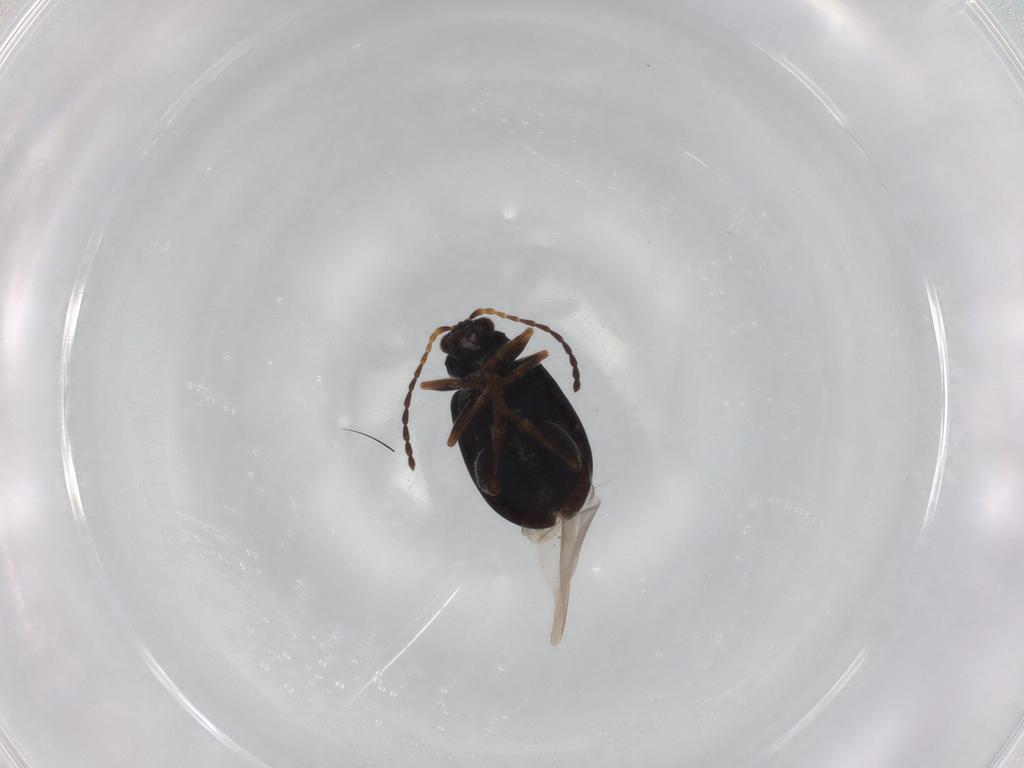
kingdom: Animalia
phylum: Arthropoda
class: Insecta
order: Coleoptera
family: Chrysomelidae
